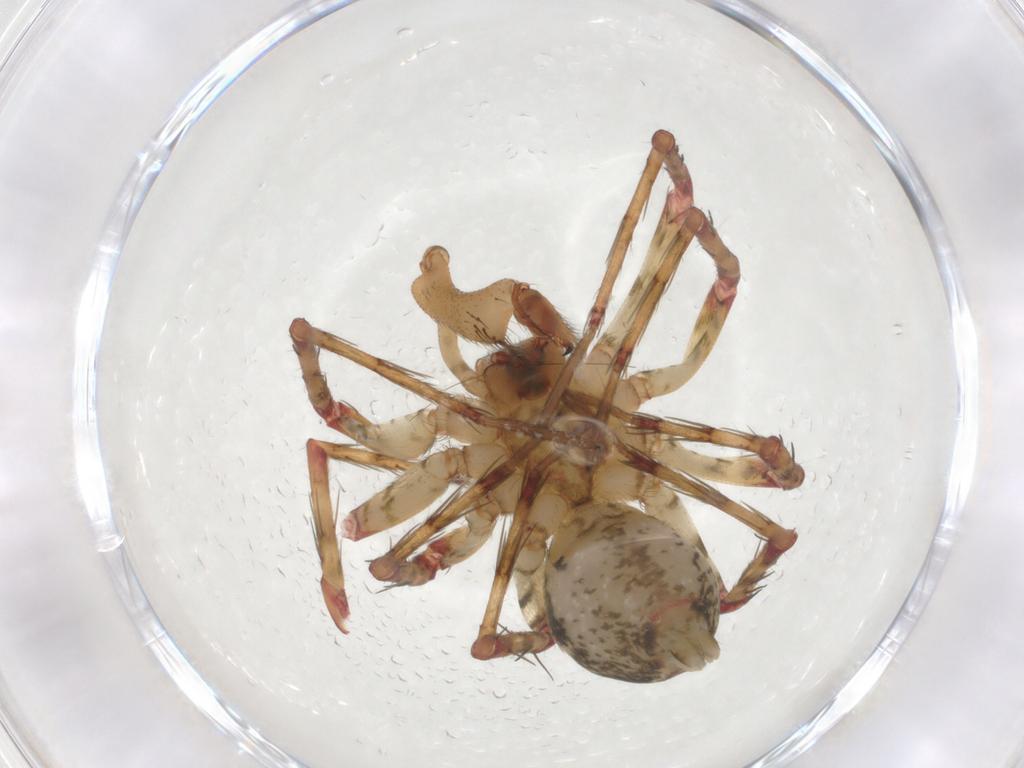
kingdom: Animalia
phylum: Arthropoda
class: Arachnida
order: Araneae
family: Theridiidae
